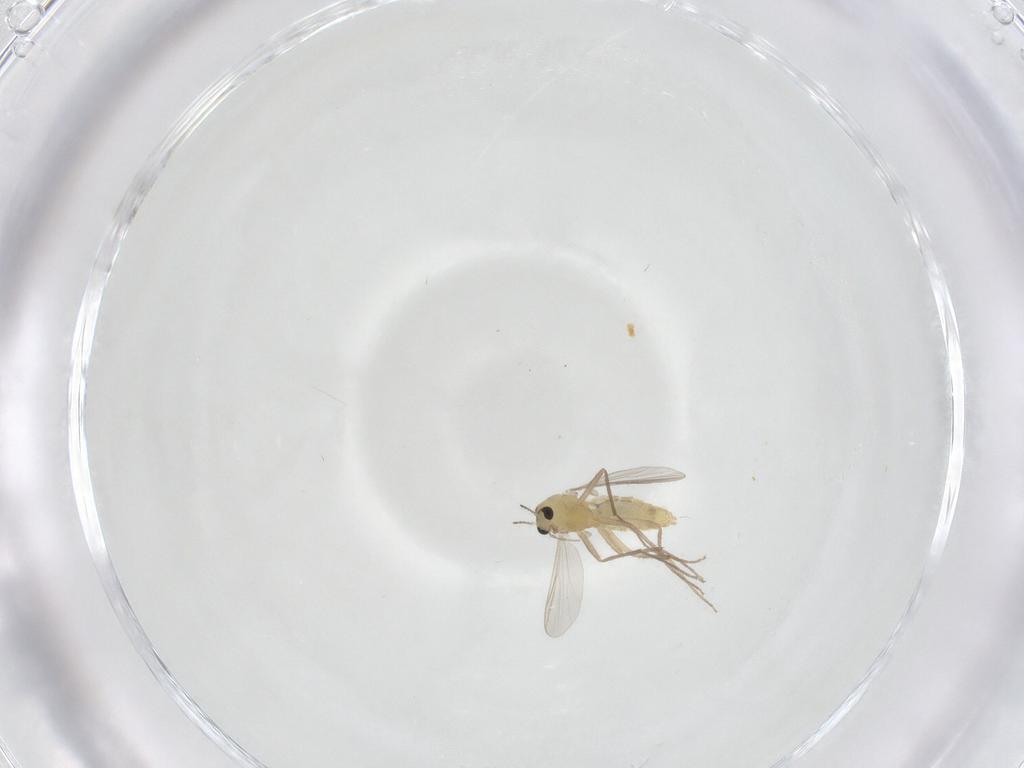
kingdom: Animalia
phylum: Arthropoda
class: Insecta
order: Diptera
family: Chironomidae
